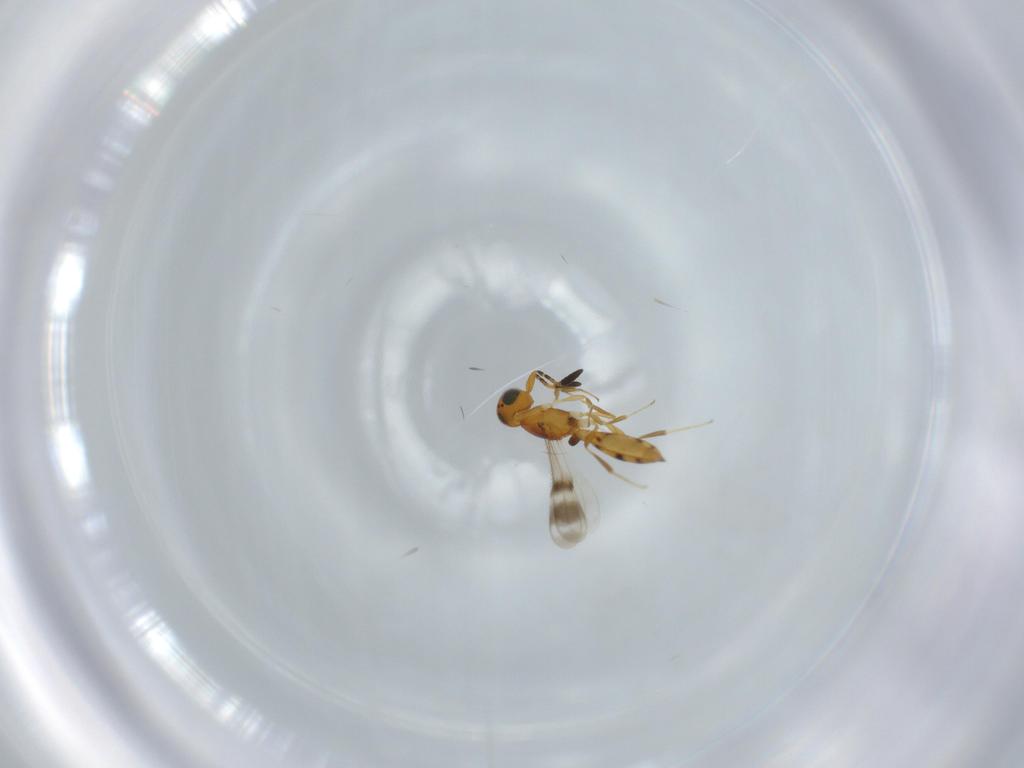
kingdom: Animalia
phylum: Arthropoda
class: Insecta
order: Hymenoptera
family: Scelionidae
